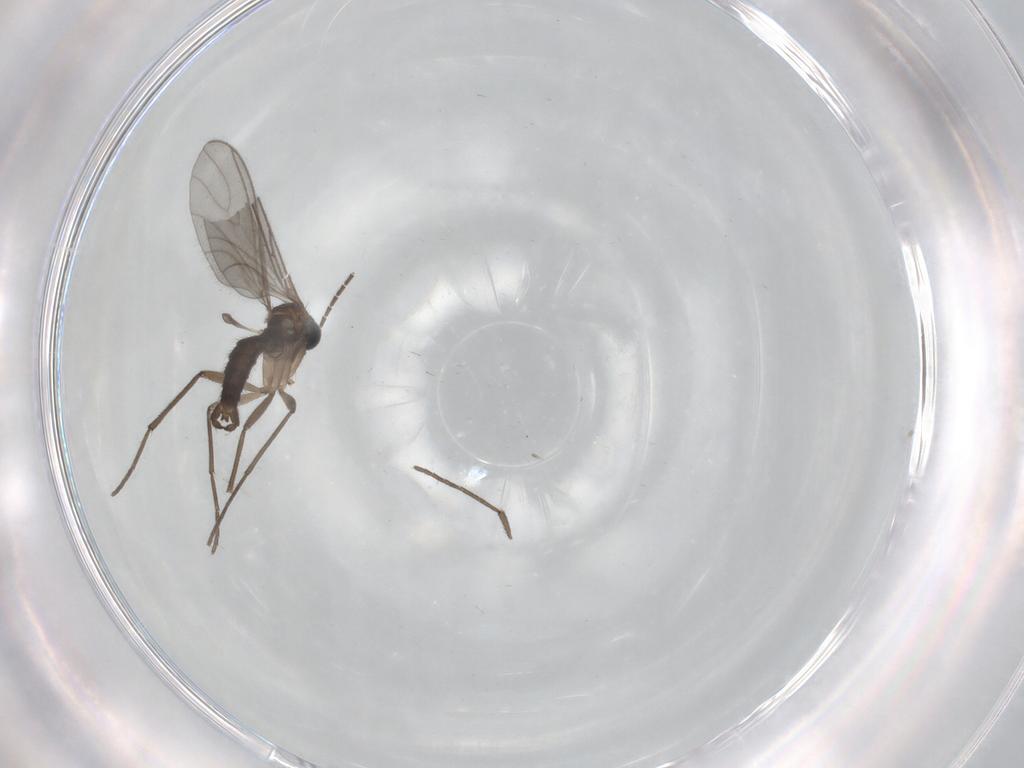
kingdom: Animalia
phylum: Arthropoda
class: Insecta
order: Diptera
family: Sciaridae
